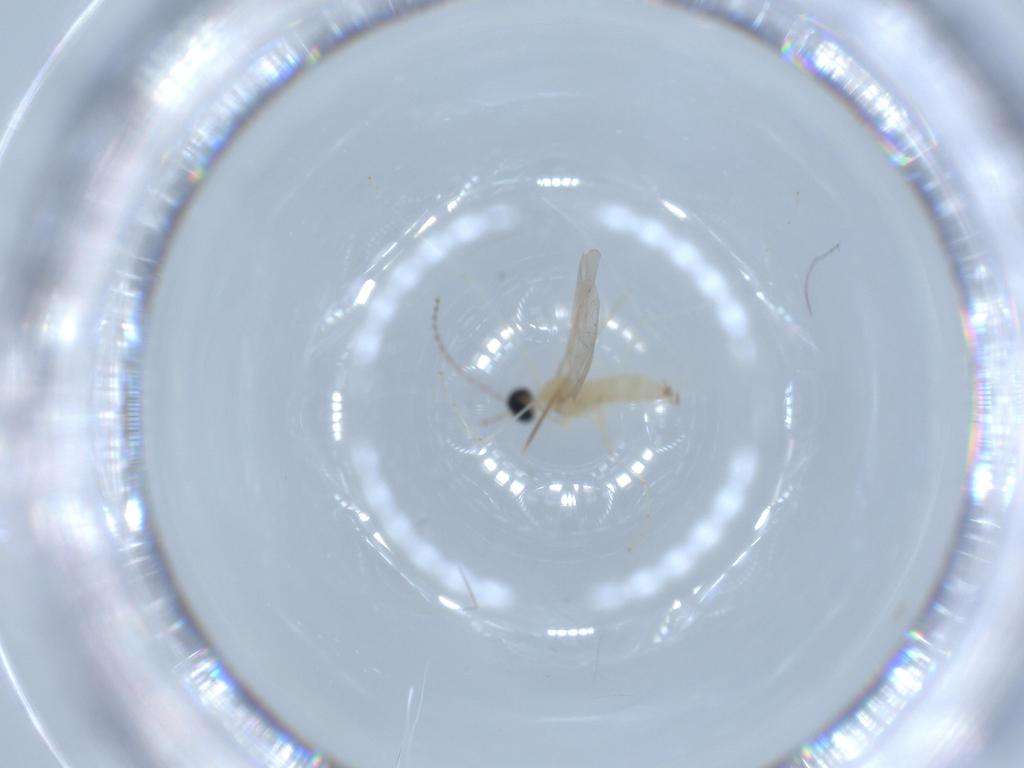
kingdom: Animalia
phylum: Arthropoda
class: Insecta
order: Diptera
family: Cecidomyiidae
